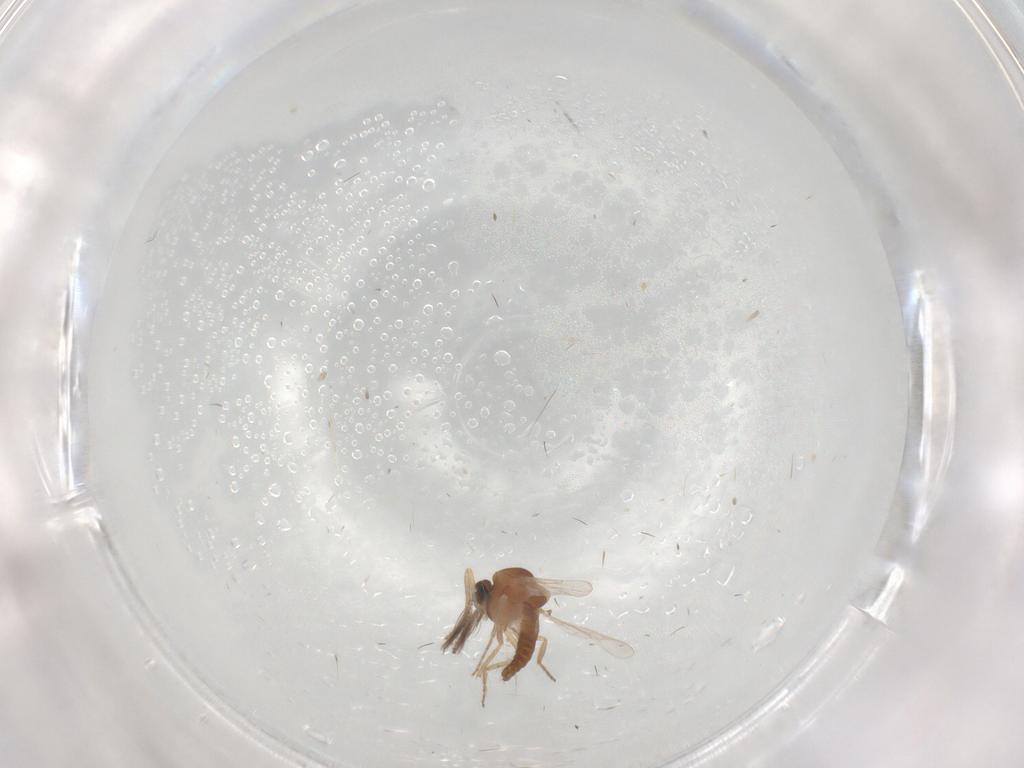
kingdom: Animalia
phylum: Arthropoda
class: Insecta
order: Diptera
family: Ceratopogonidae
